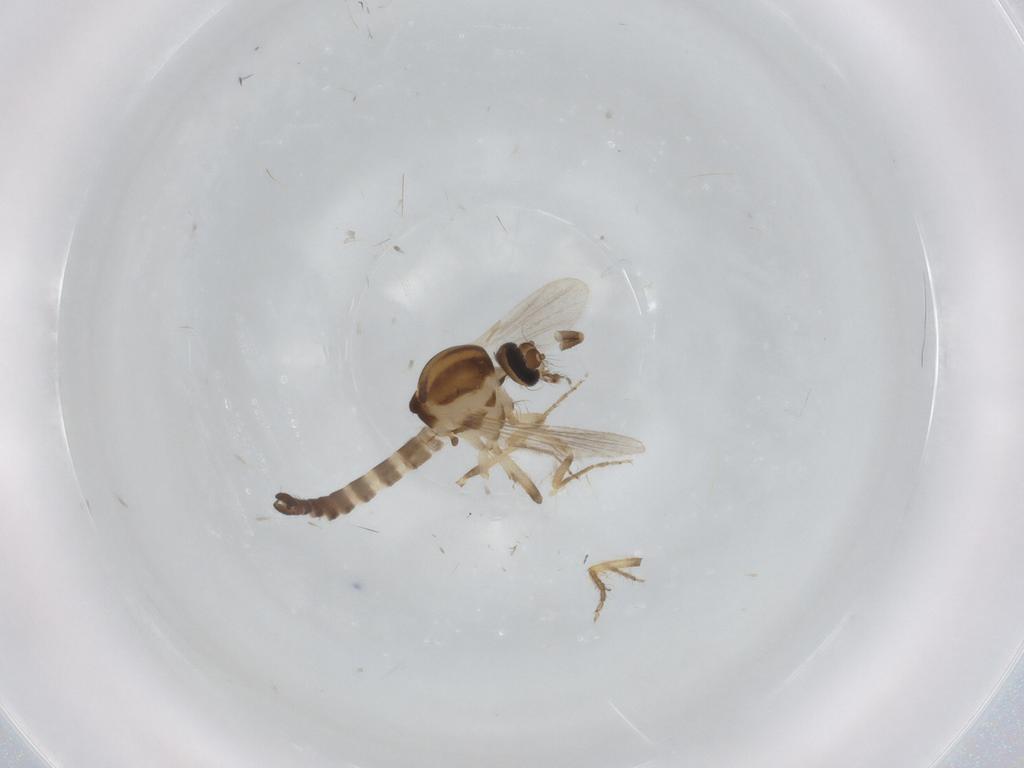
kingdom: Animalia
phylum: Arthropoda
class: Insecta
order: Diptera
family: Ceratopogonidae
